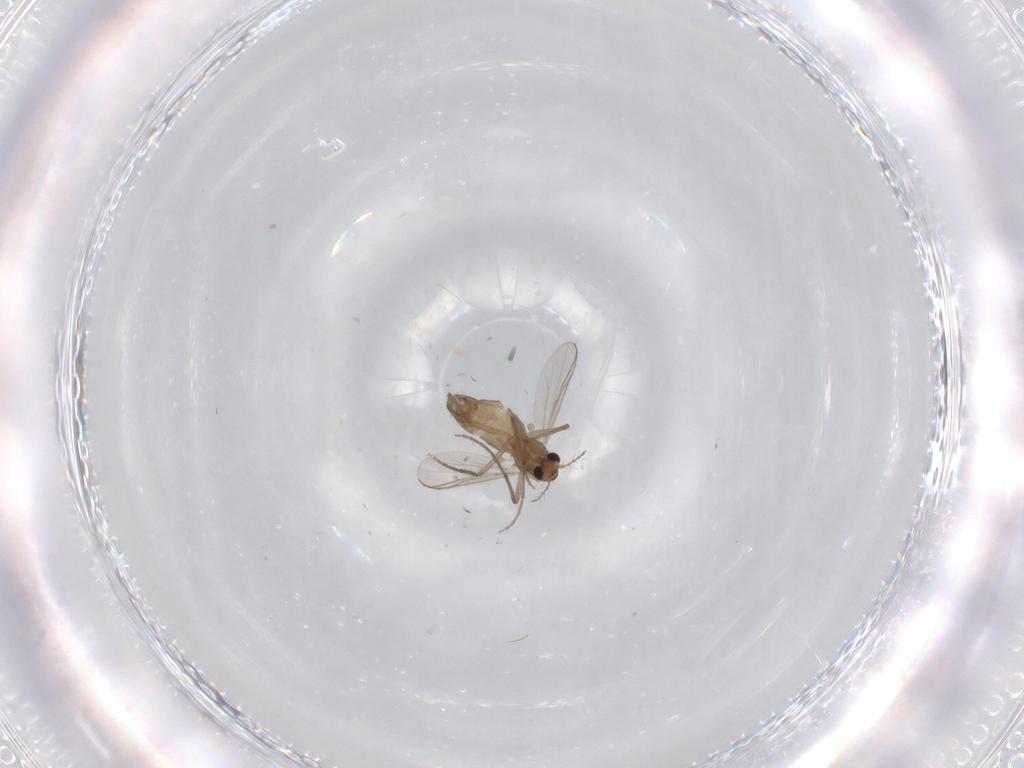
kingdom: Animalia
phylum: Arthropoda
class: Insecta
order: Diptera
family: Chironomidae
